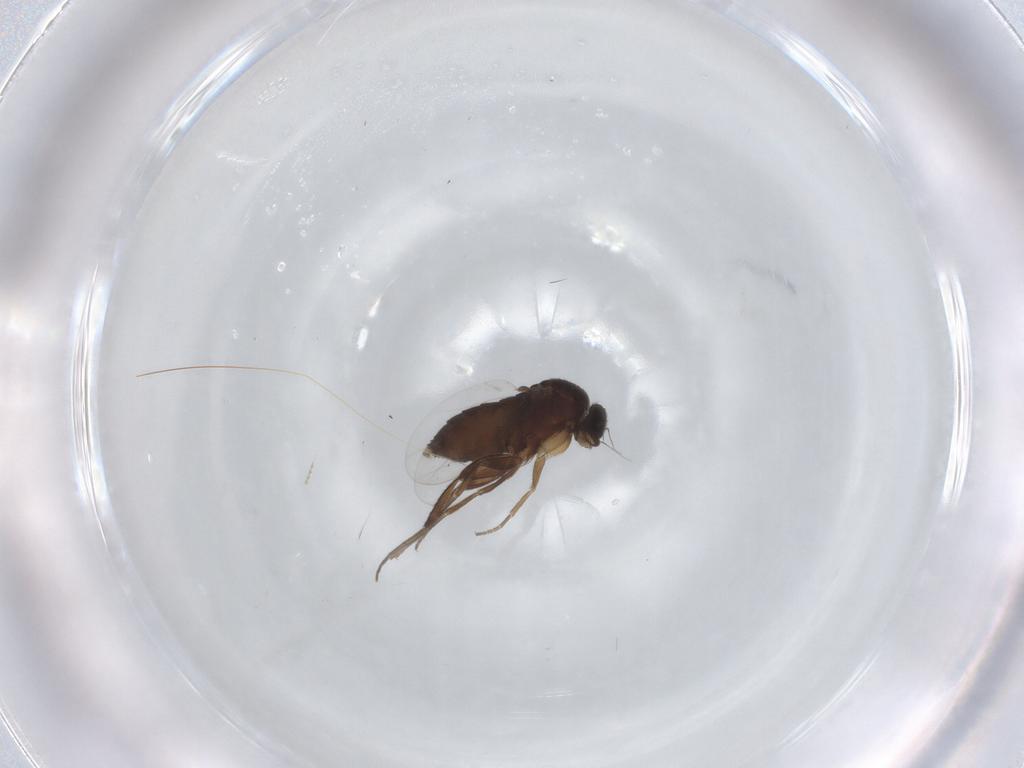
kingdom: Animalia
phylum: Arthropoda
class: Insecta
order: Diptera
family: Phoridae
